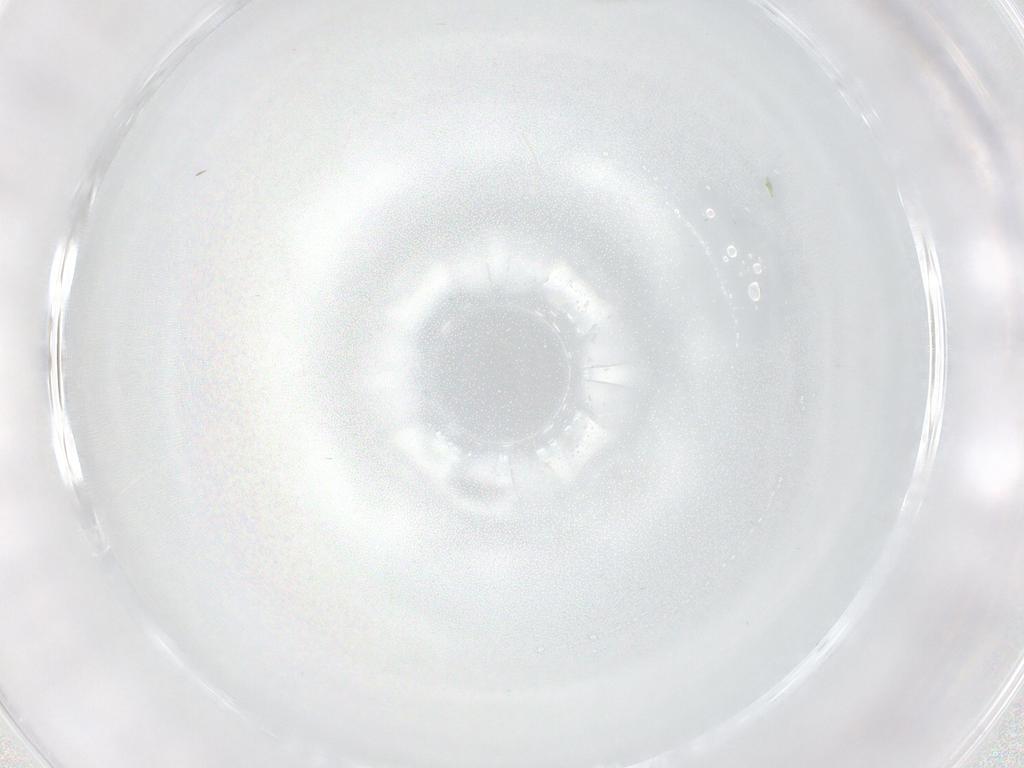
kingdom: Animalia
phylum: Arthropoda
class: Insecta
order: Diptera
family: Empididae
